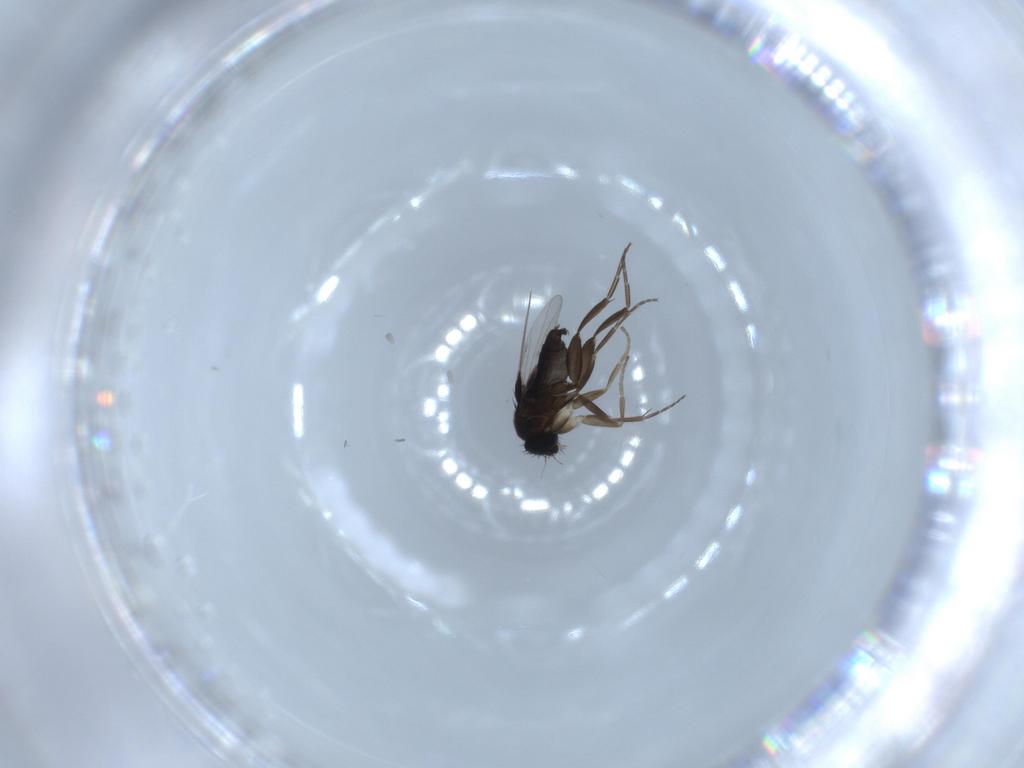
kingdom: Animalia
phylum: Arthropoda
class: Insecta
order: Diptera
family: Phoridae
